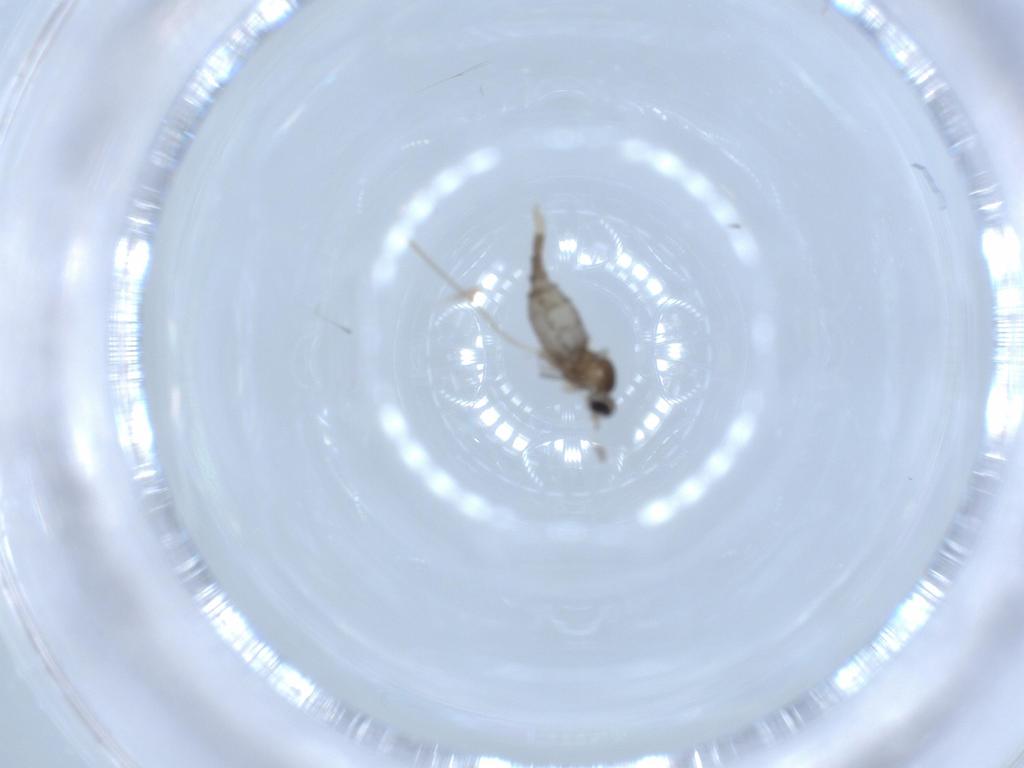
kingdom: Animalia
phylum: Arthropoda
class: Insecta
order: Diptera
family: Cecidomyiidae
